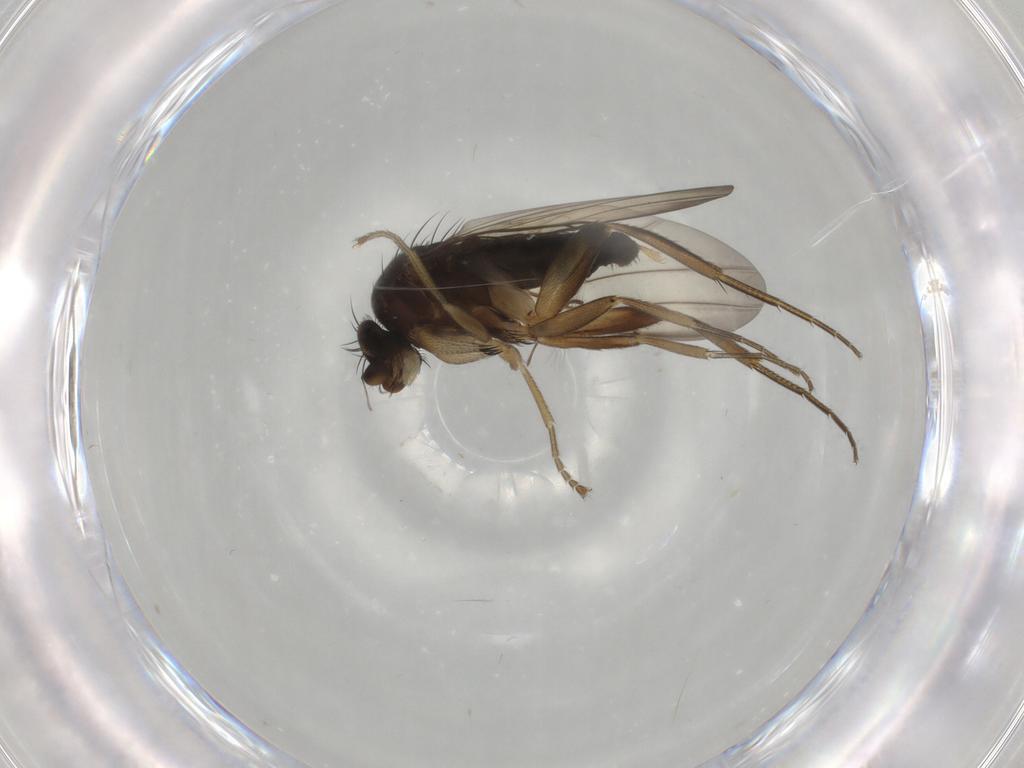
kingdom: Animalia
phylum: Arthropoda
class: Insecta
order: Diptera
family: Phoridae
